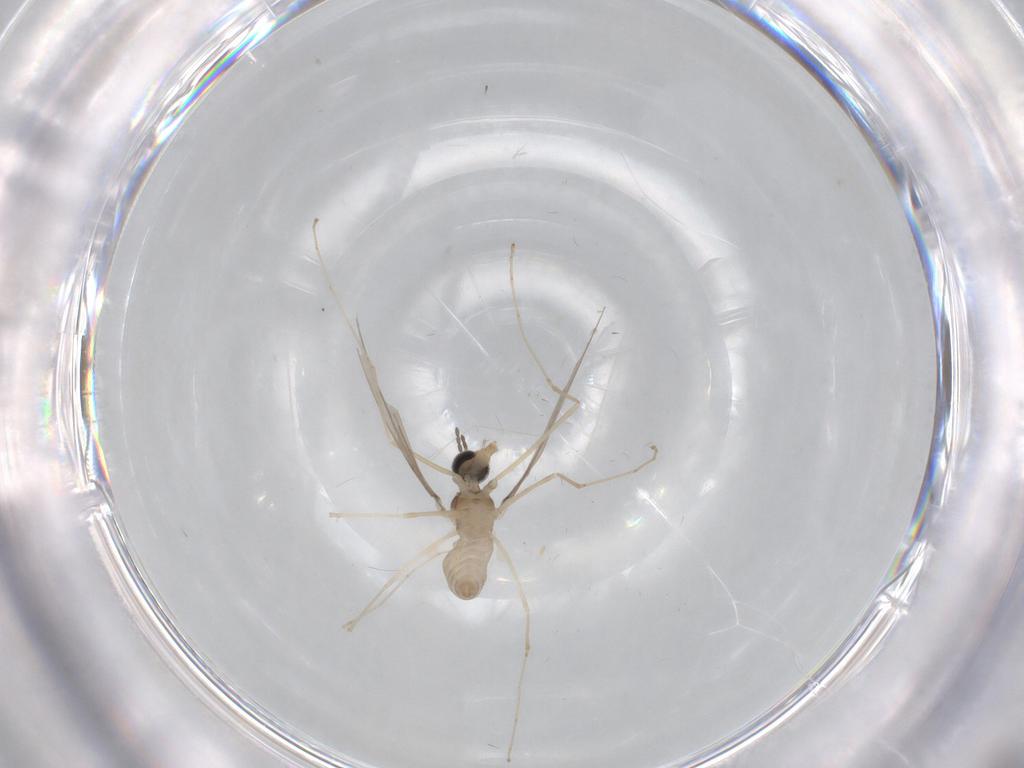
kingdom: Animalia
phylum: Arthropoda
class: Insecta
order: Diptera
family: Cecidomyiidae
